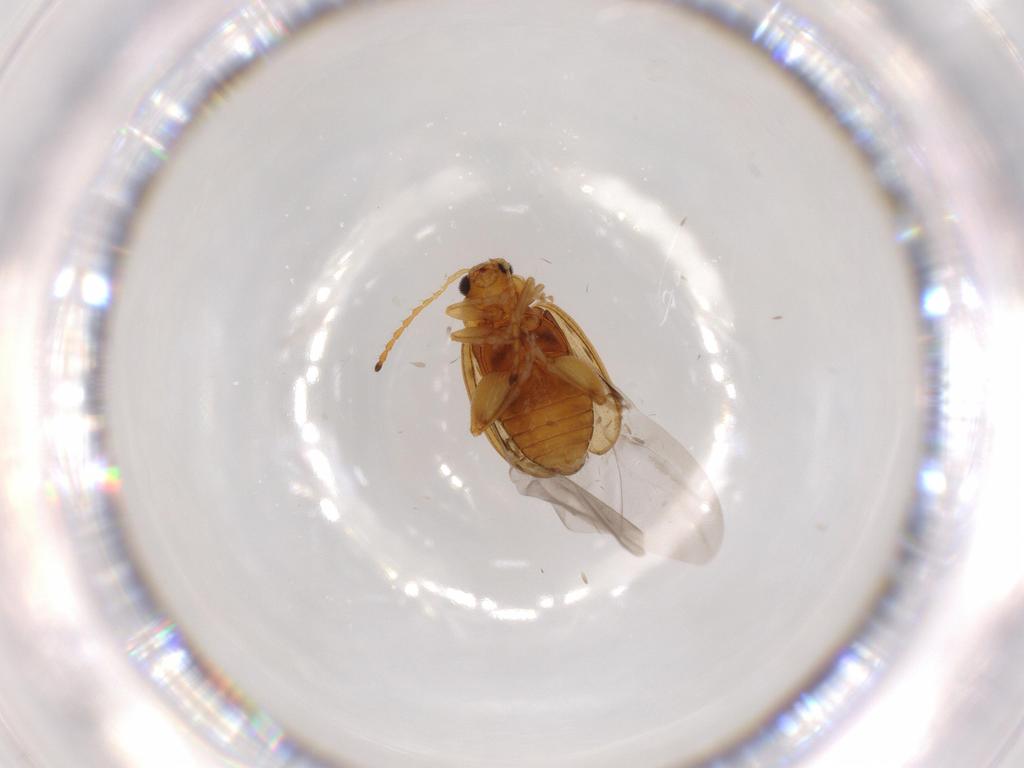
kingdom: Animalia
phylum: Arthropoda
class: Insecta
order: Coleoptera
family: Chrysomelidae
